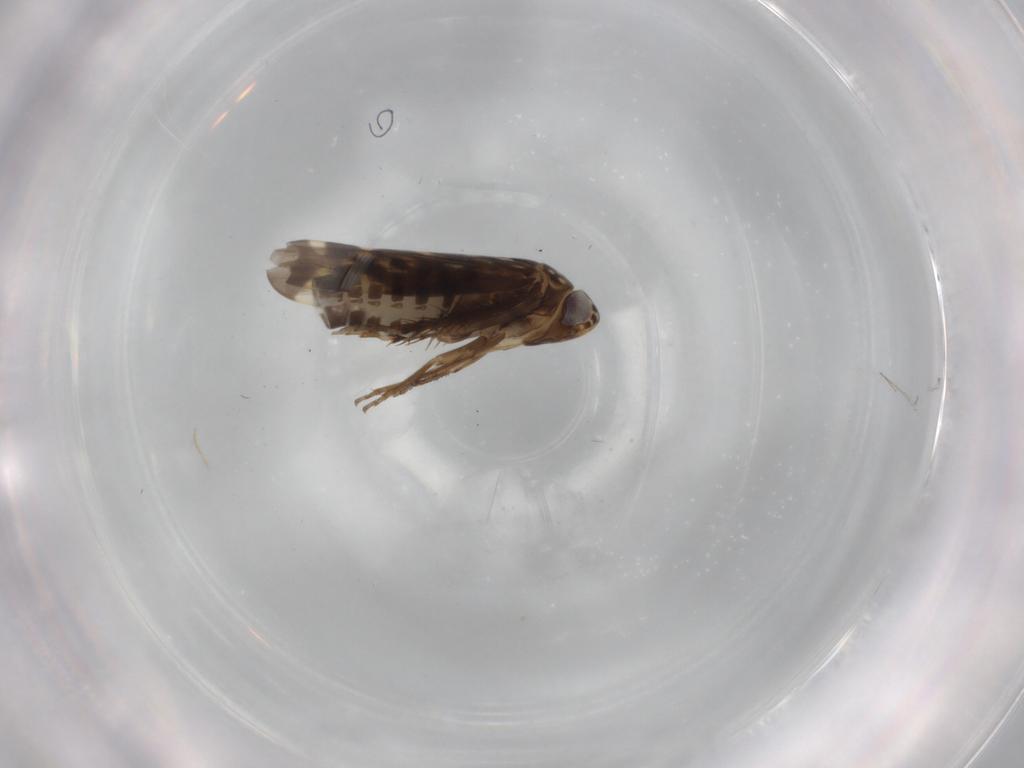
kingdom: Animalia
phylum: Arthropoda
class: Insecta
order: Hemiptera
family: Cicadellidae
